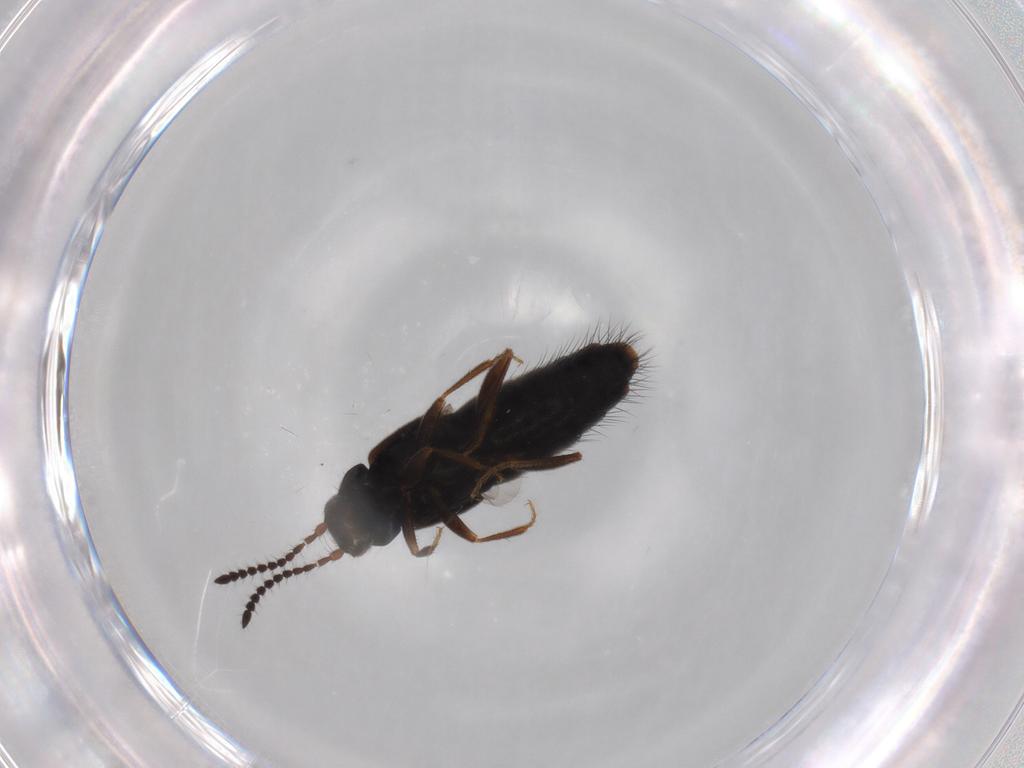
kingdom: Animalia
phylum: Arthropoda
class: Insecta
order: Coleoptera
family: Staphylinidae
